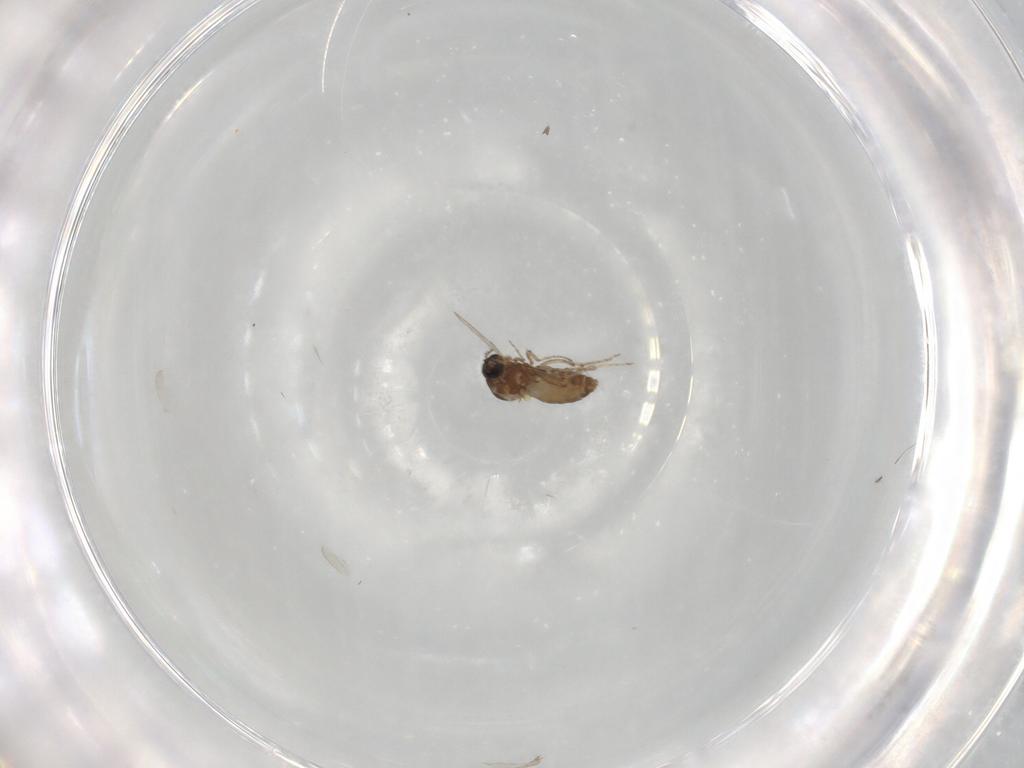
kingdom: Animalia
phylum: Arthropoda
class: Insecta
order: Diptera
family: Ceratopogonidae
